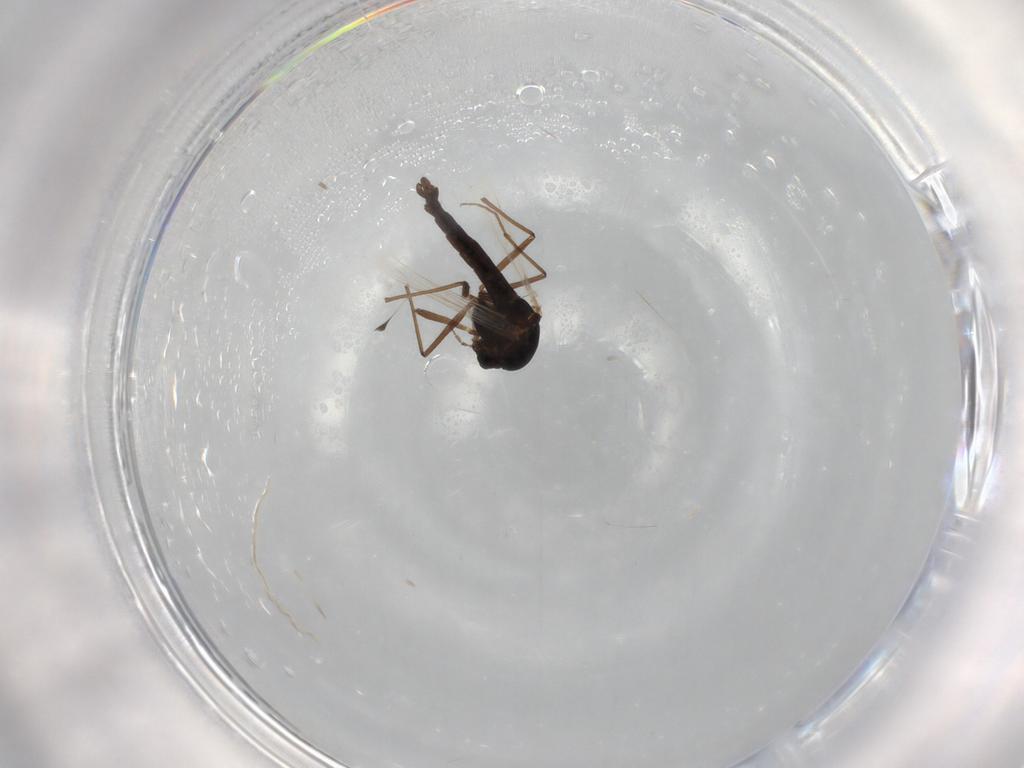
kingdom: Animalia
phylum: Arthropoda
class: Insecta
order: Diptera
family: Chironomidae
